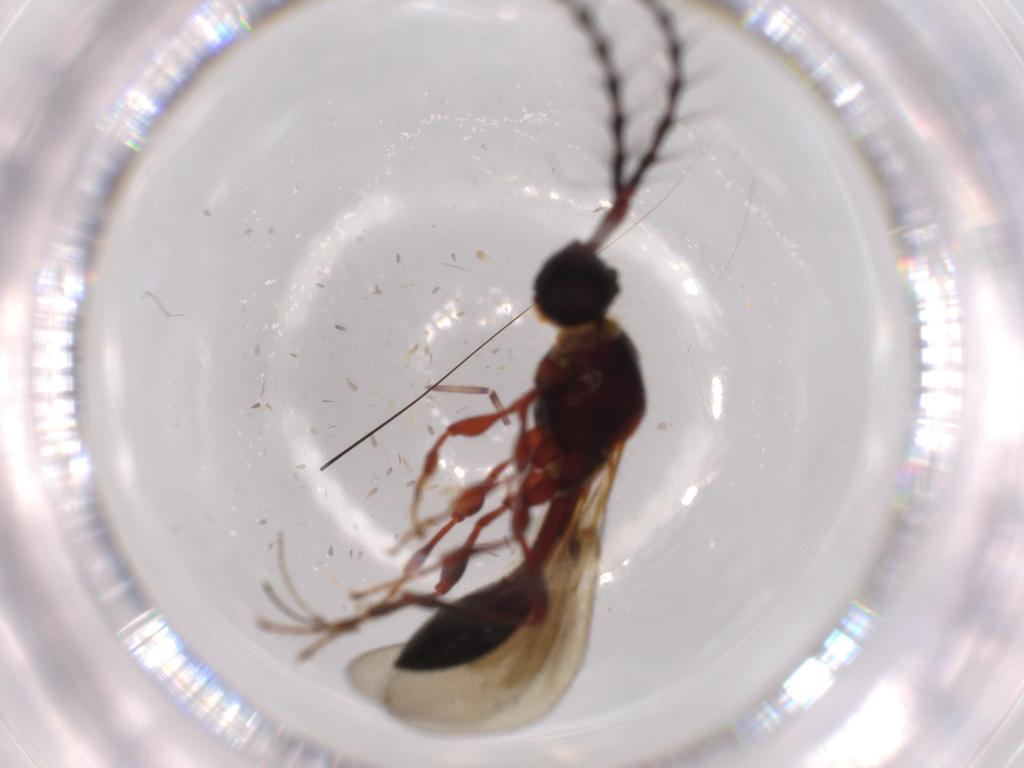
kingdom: Animalia
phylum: Arthropoda
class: Insecta
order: Hymenoptera
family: Diapriidae
